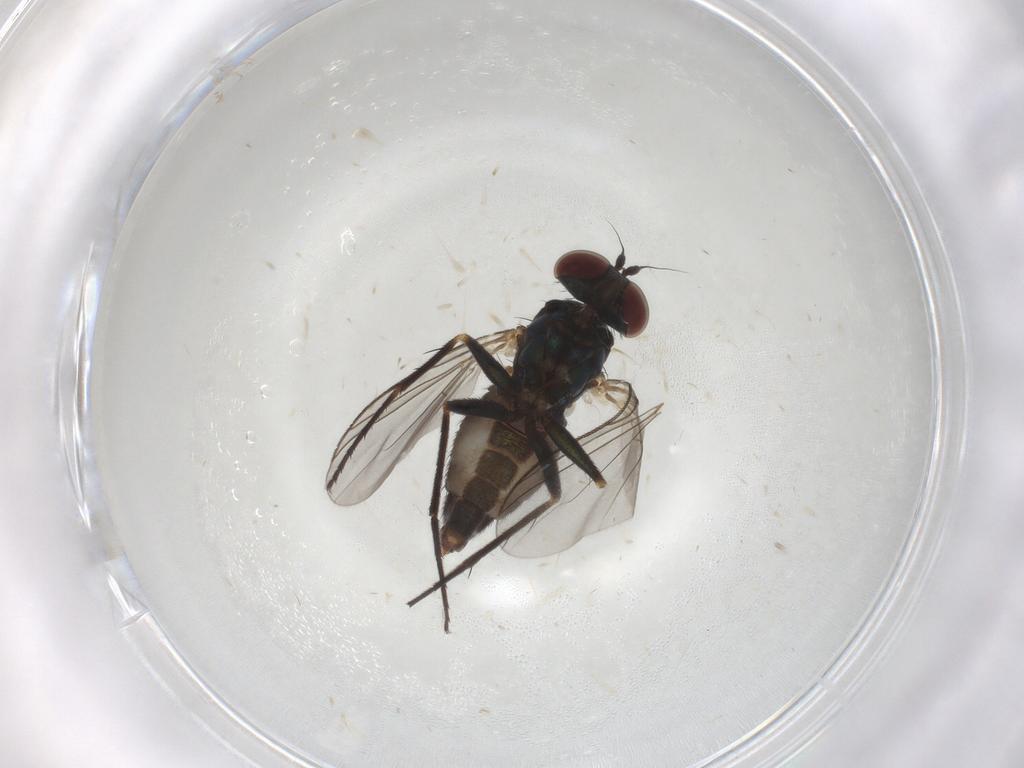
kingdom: Animalia
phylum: Arthropoda
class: Insecta
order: Diptera
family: Dolichopodidae
